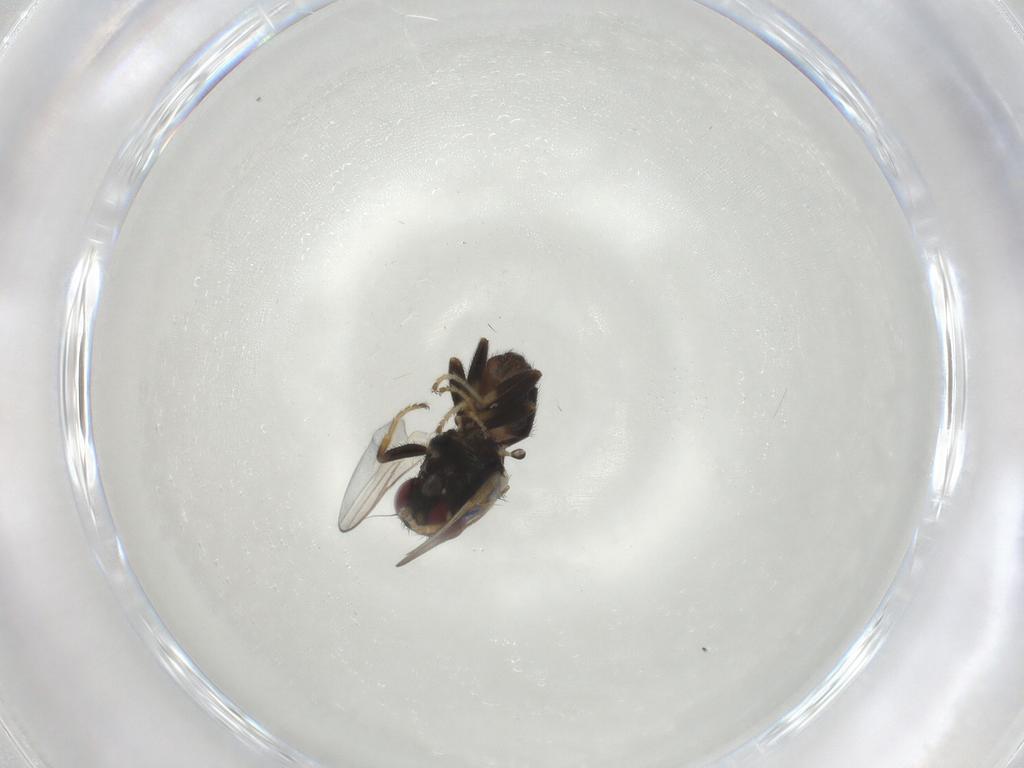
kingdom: Animalia
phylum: Arthropoda
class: Insecta
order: Diptera
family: Chloropidae
